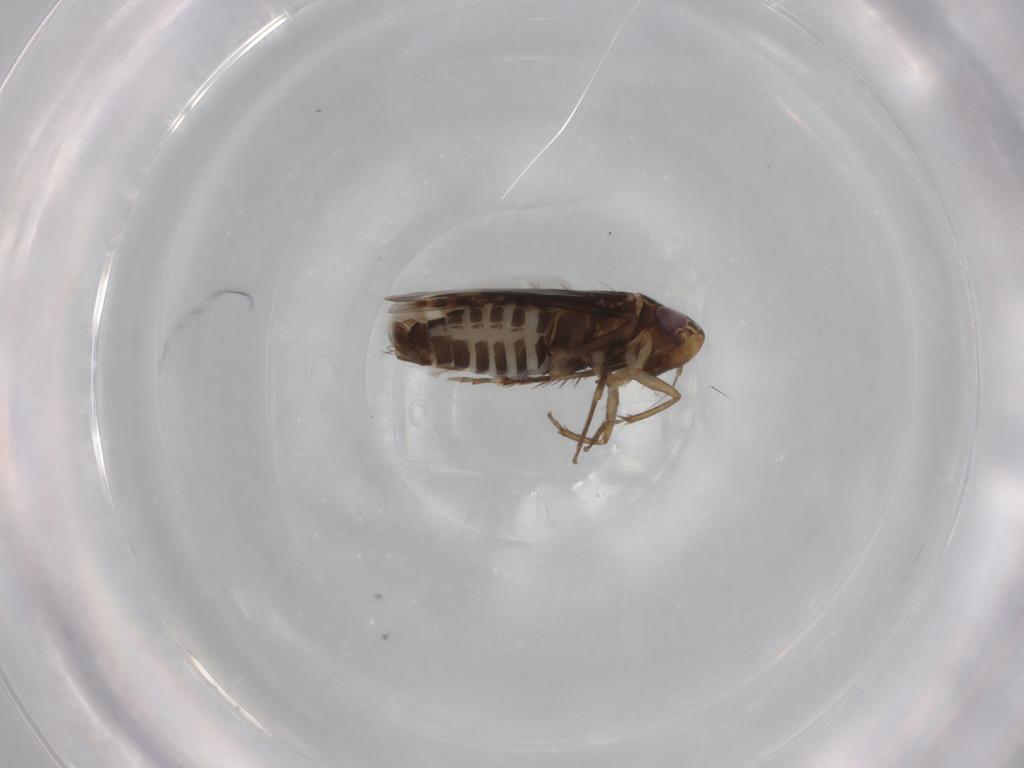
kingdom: Animalia
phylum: Arthropoda
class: Insecta
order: Hemiptera
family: Cicadellidae
